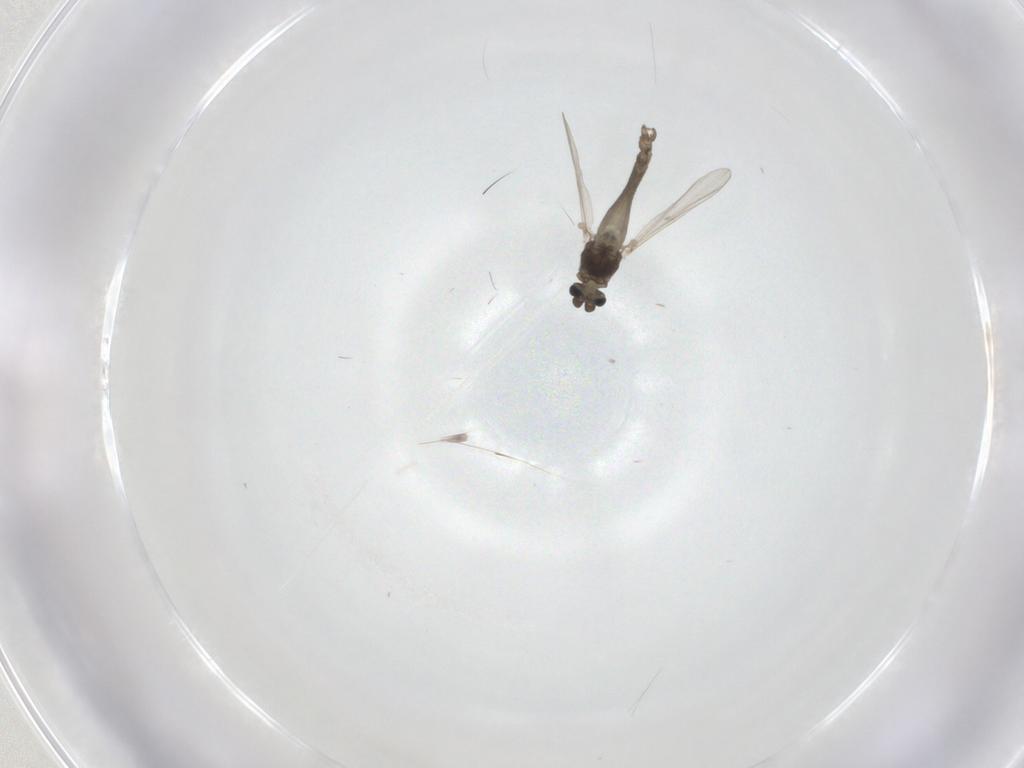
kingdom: Animalia
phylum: Arthropoda
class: Insecta
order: Diptera
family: Chironomidae
